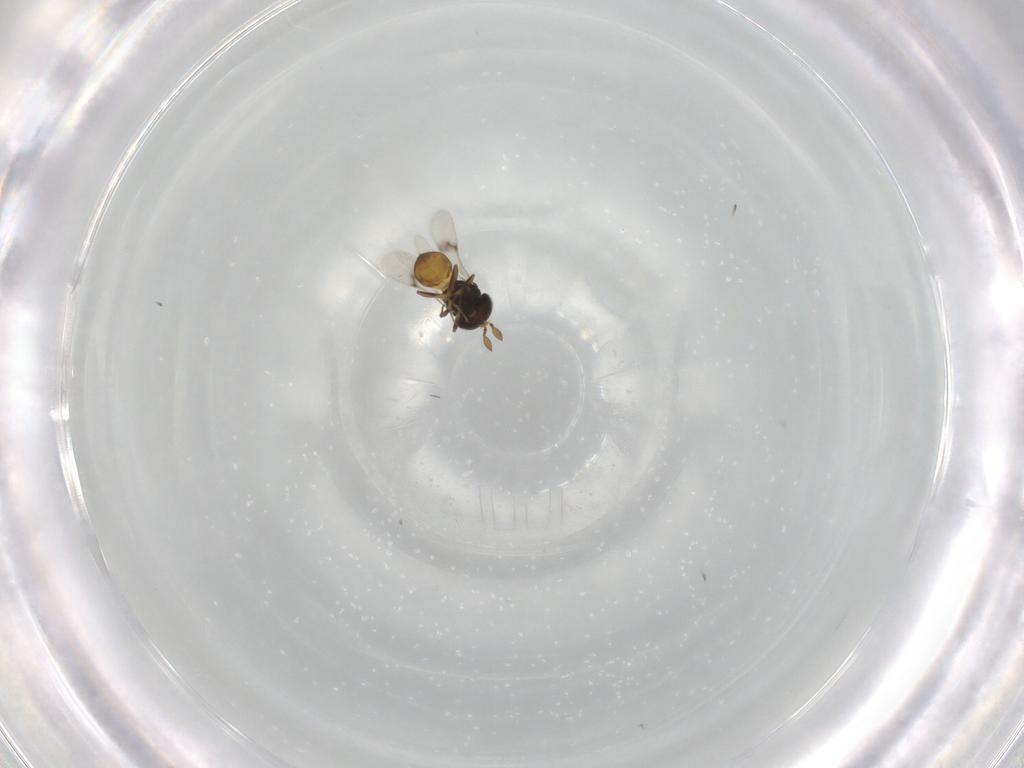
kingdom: Animalia
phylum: Arthropoda
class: Insecta
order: Hymenoptera
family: Scelionidae
